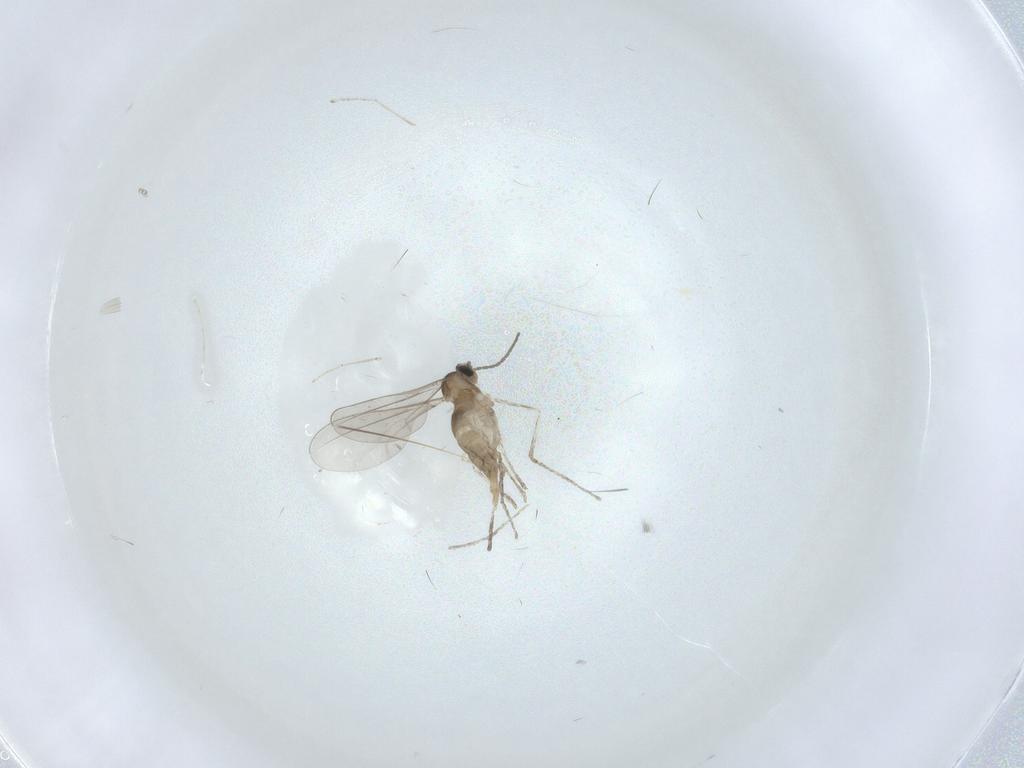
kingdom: Animalia
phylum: Arthropoda
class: Insecta
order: Diptera
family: Cecidomyiidae
